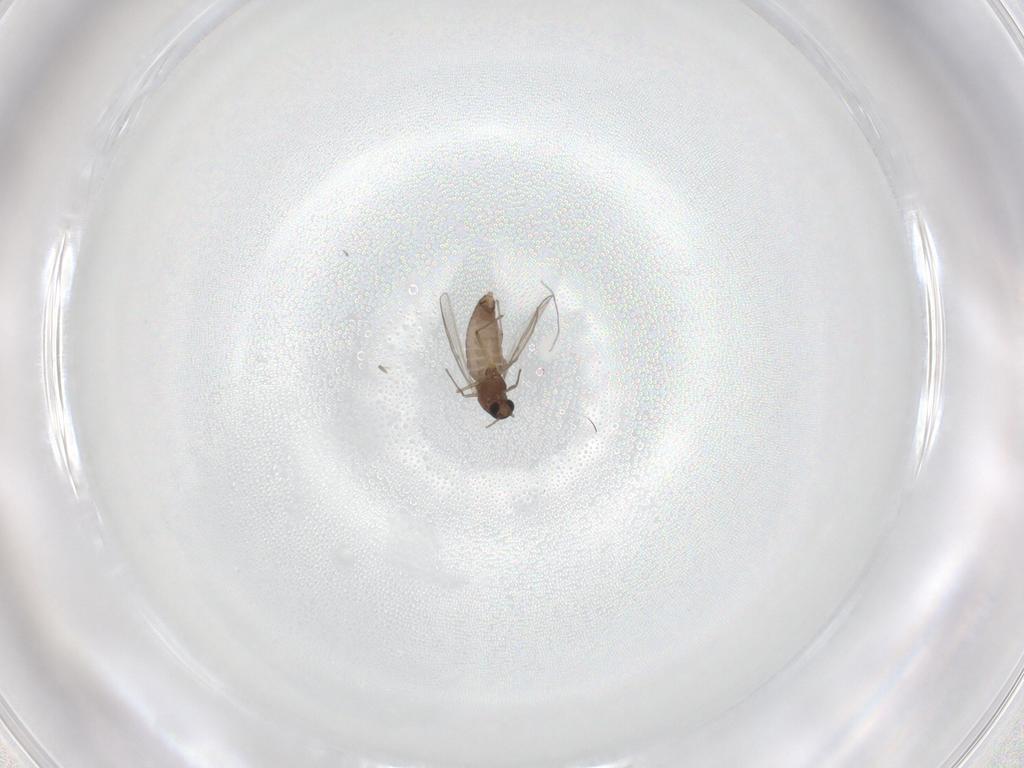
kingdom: Animalia
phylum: Arthropoda
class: Insecta
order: Diptera
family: Chironomidae
